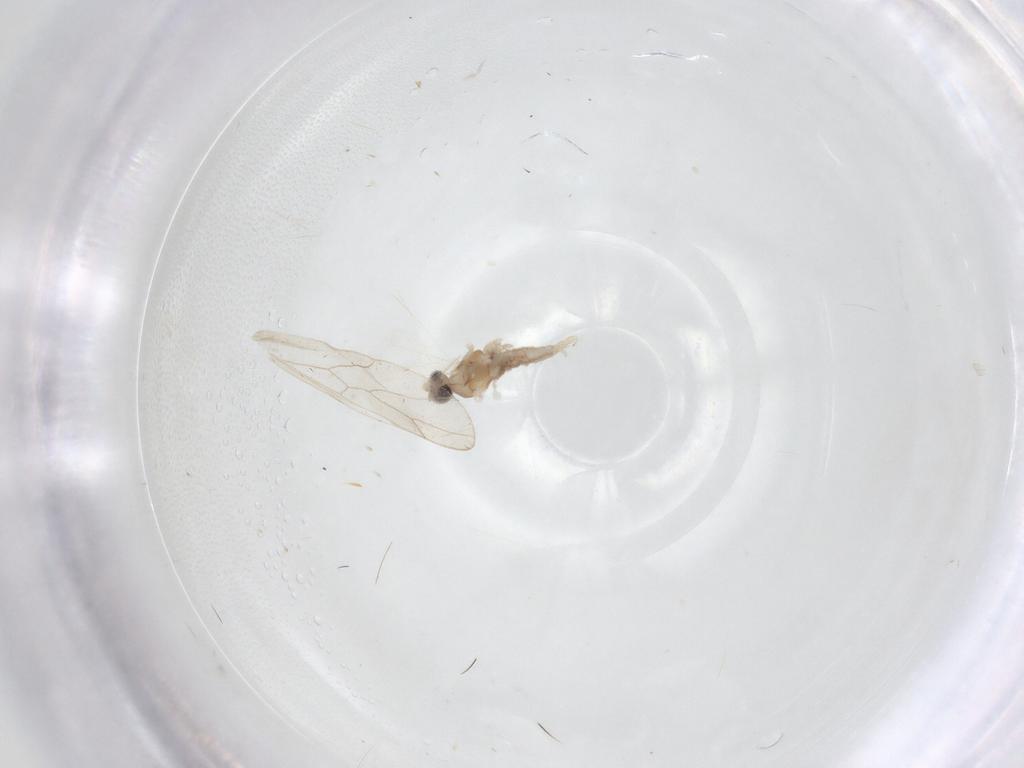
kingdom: Animalia
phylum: Arthropoda
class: Insecta
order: Diptera
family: Cecidomyiidae
